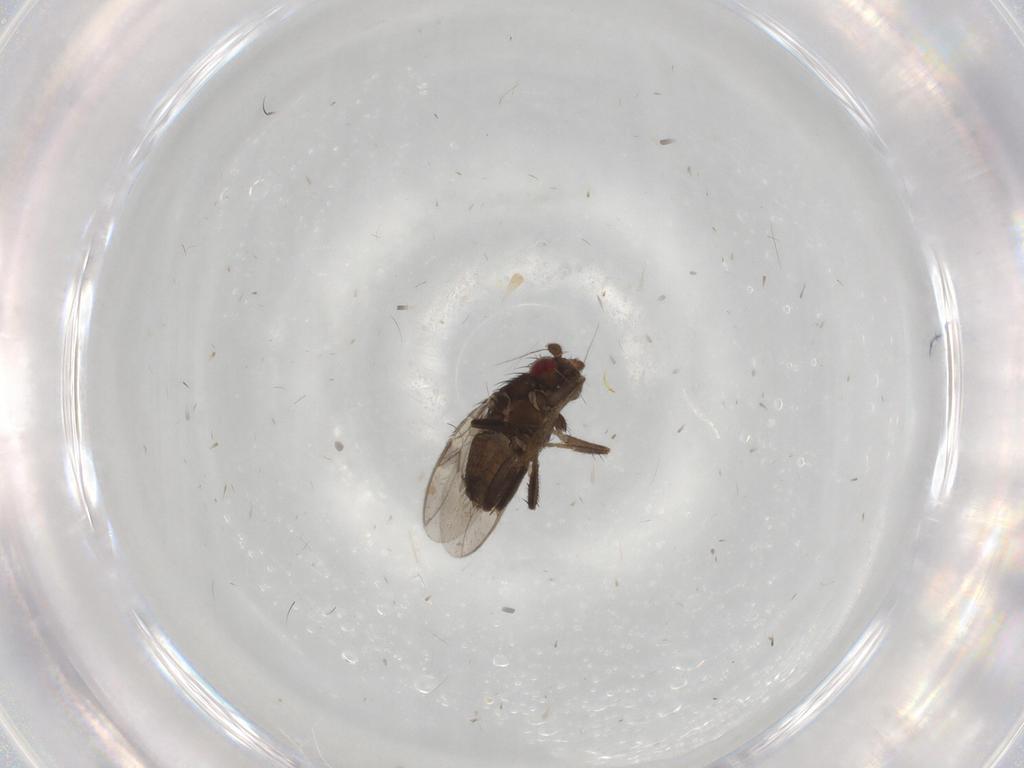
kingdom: Animalia
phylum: Arthropoda
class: Insecta
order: Diptera
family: Sphaeroceridae
